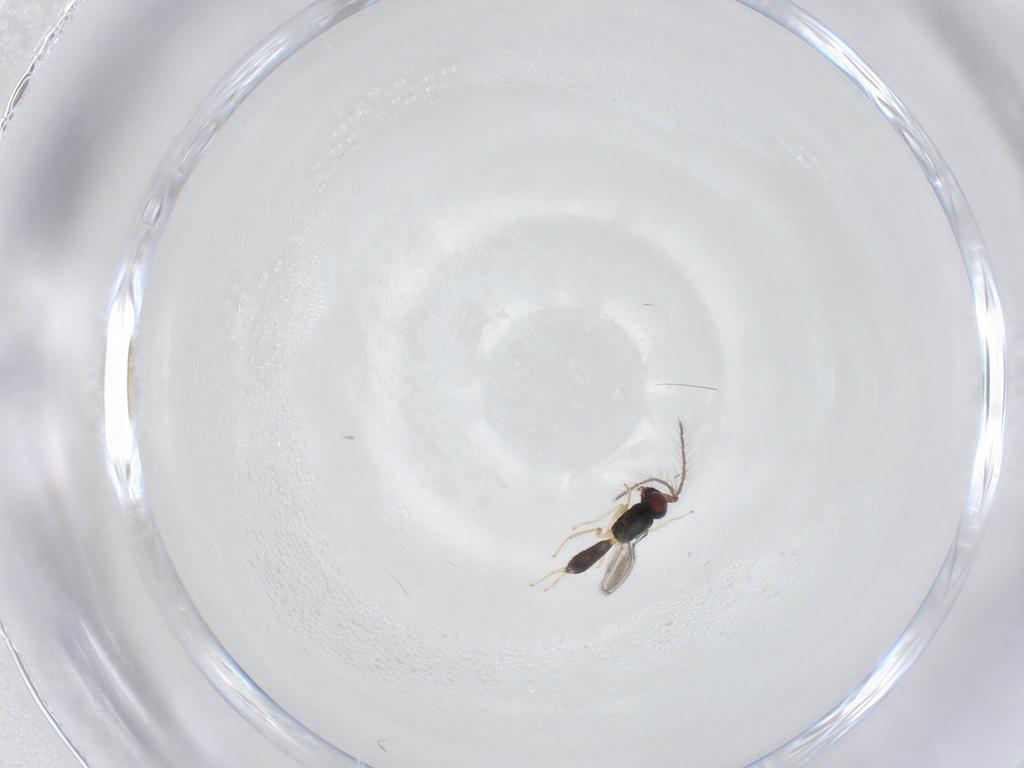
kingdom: Animalia
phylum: Arthropoda
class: Insecta
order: Hymenoptera
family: Eulophidae
